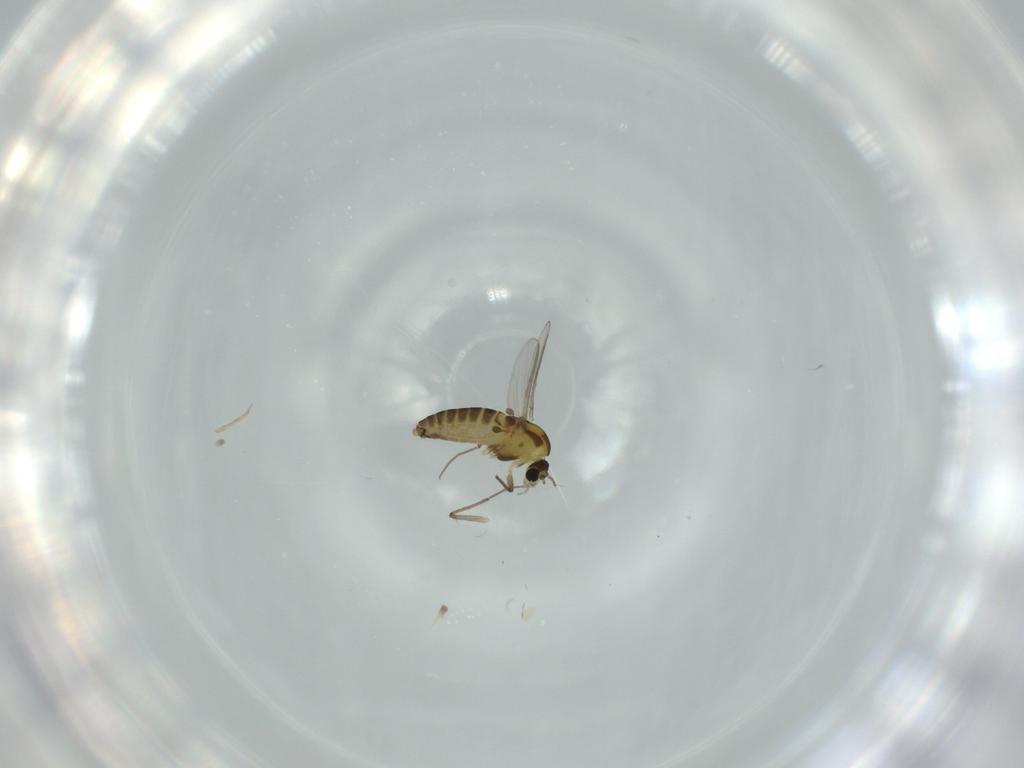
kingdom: Animalia
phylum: Arthropoda
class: Insecta
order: Diptera
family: Chironomidae
